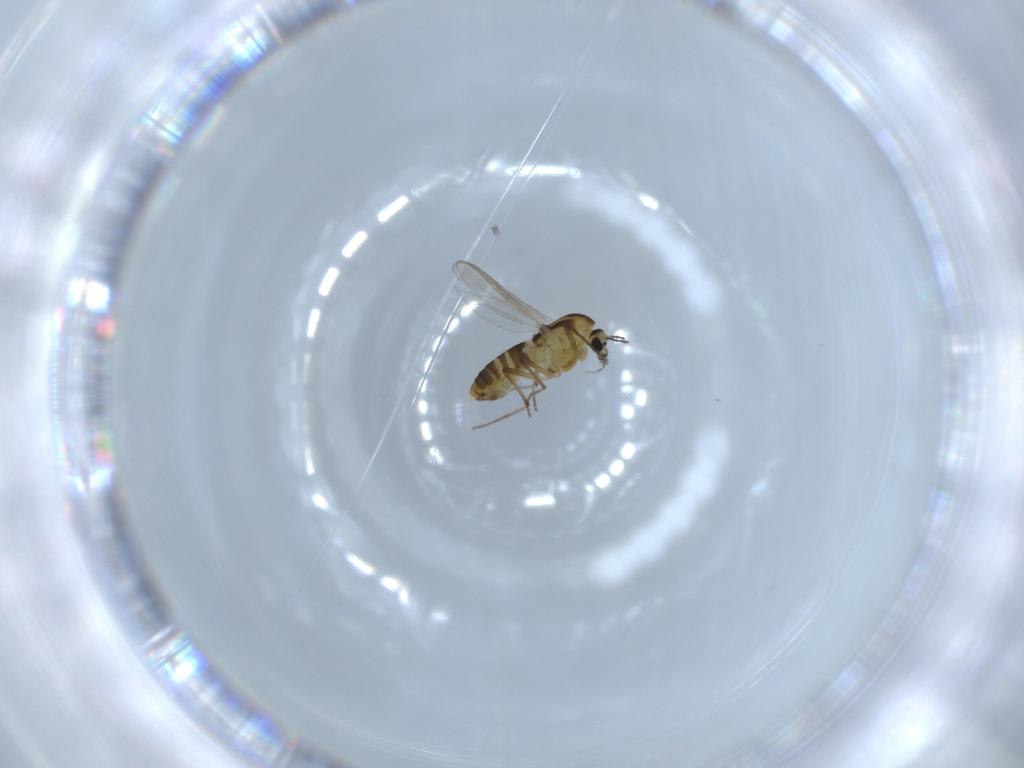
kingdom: Animalia
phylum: Arthropoda
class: Insecta
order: Diptera
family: Chironomidae
